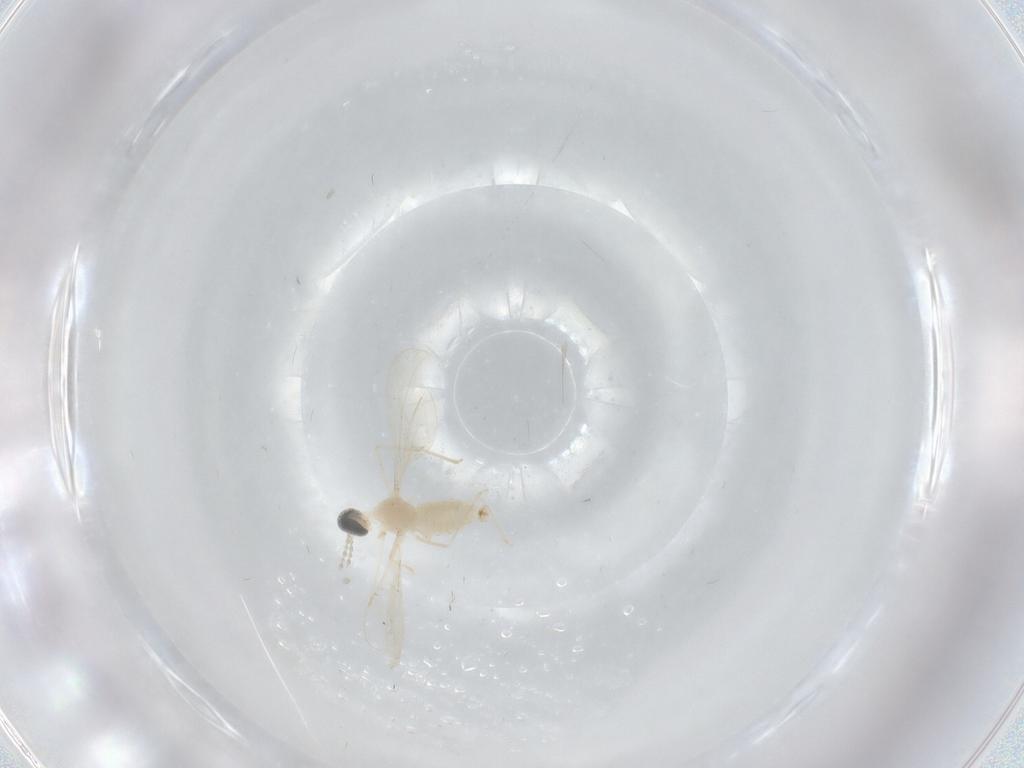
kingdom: Animalia
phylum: Arthropoda
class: Insecta
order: Diptera
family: Cecidomyiidae
